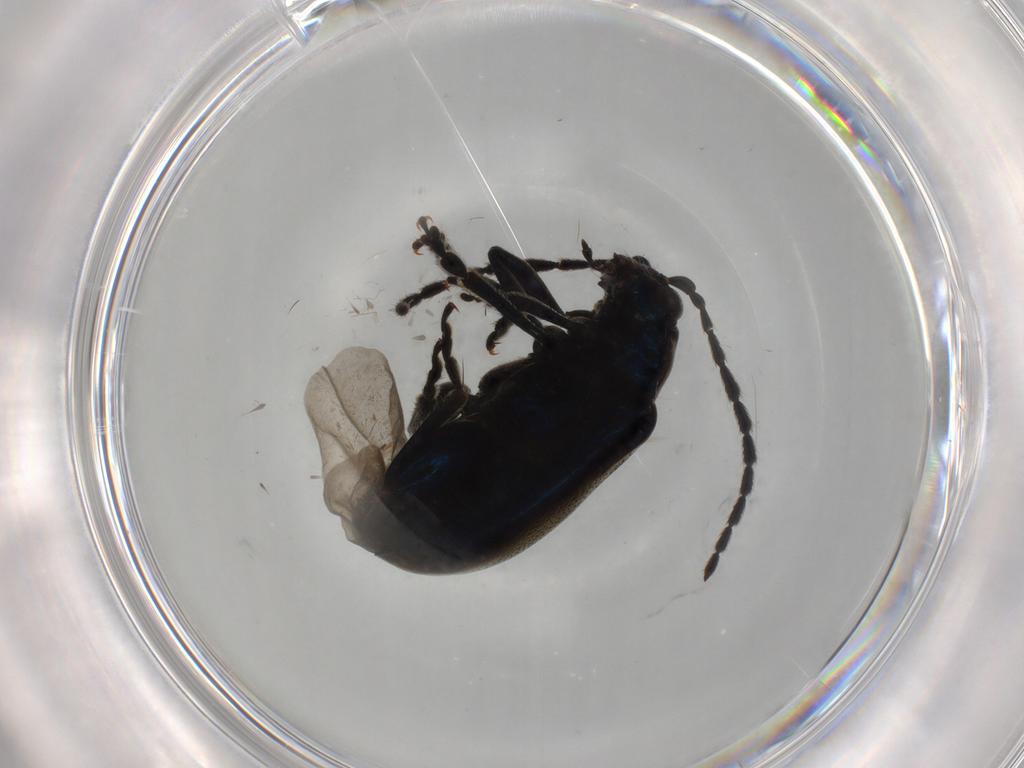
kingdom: Animalia
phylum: Arthropoda
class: Insecta
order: Coleoptera
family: Chrysomelidae
